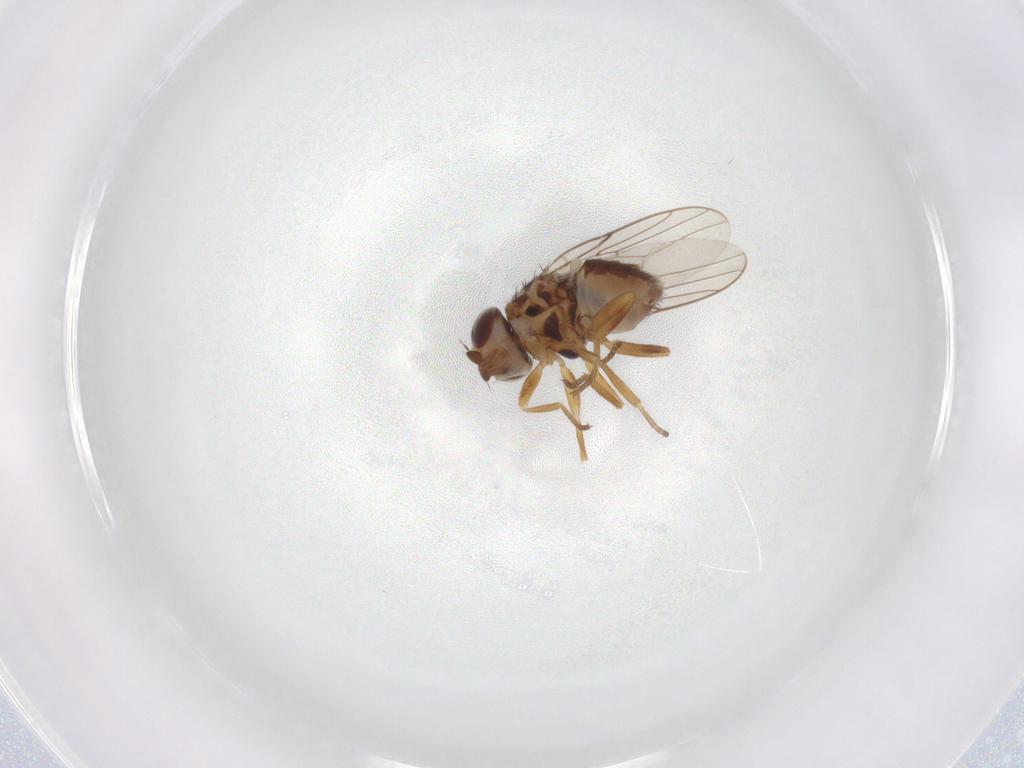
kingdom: Animalia
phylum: Arthropoda
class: Insecta
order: Diptera
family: Chloropidae
